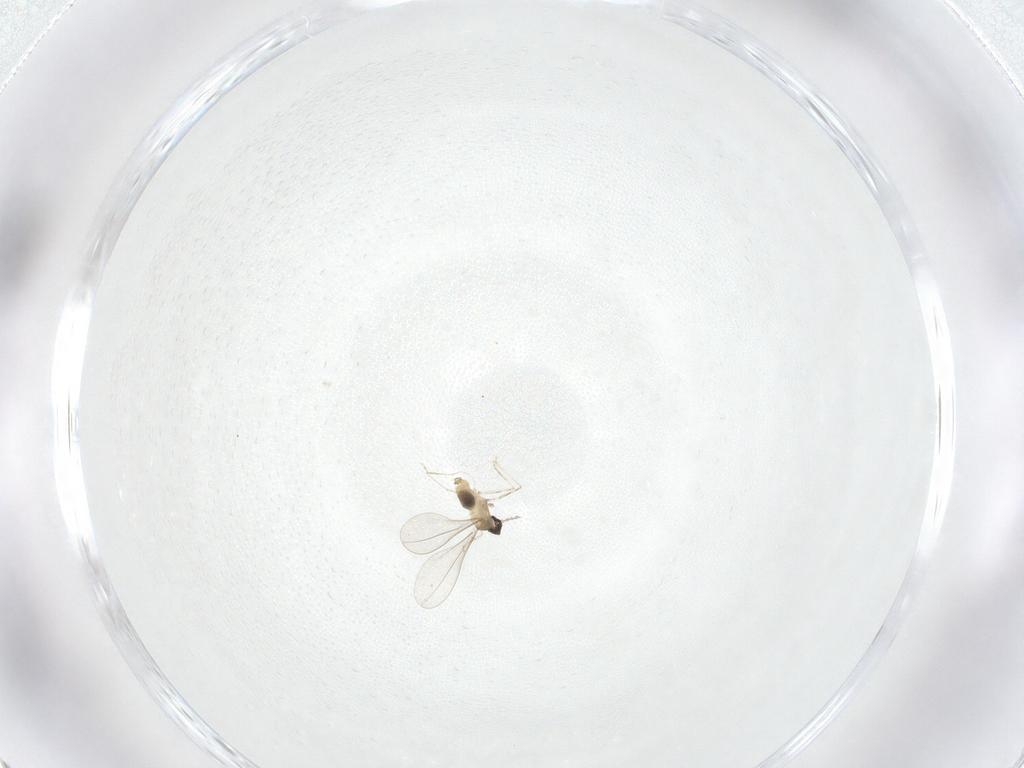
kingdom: Animalia
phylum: Arthropoda
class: Insecta
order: Diptera
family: Cecidomyiidae
